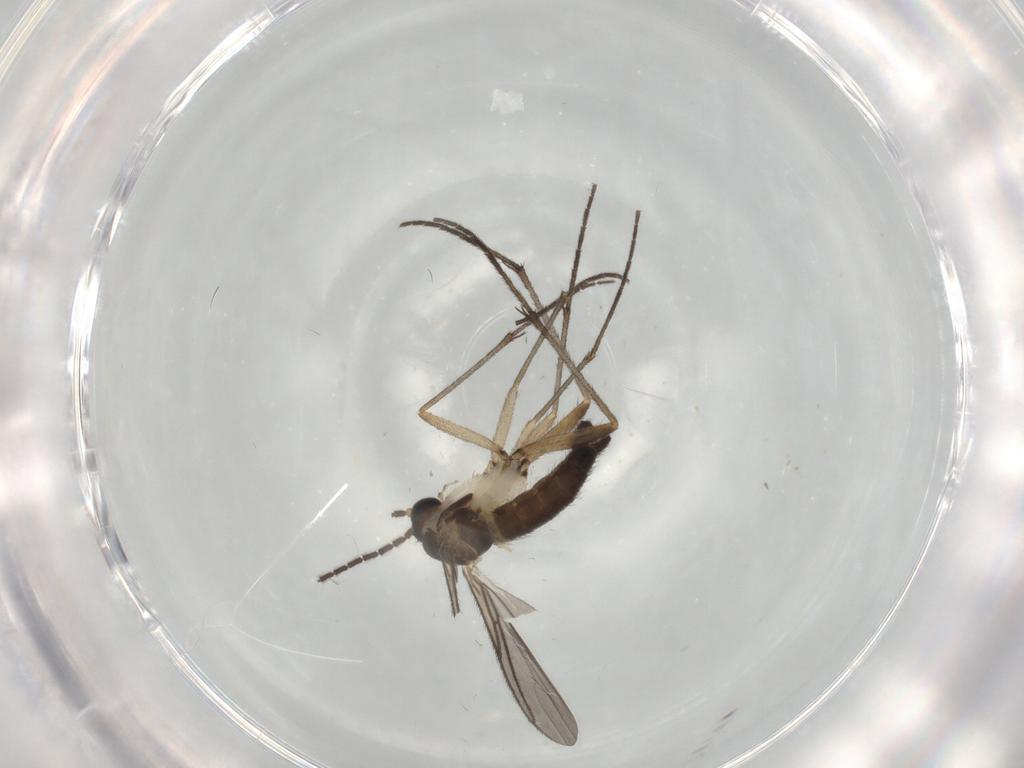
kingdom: Animalia
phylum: Arthropoda
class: Insecta
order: Diptera
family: Sciaridae
